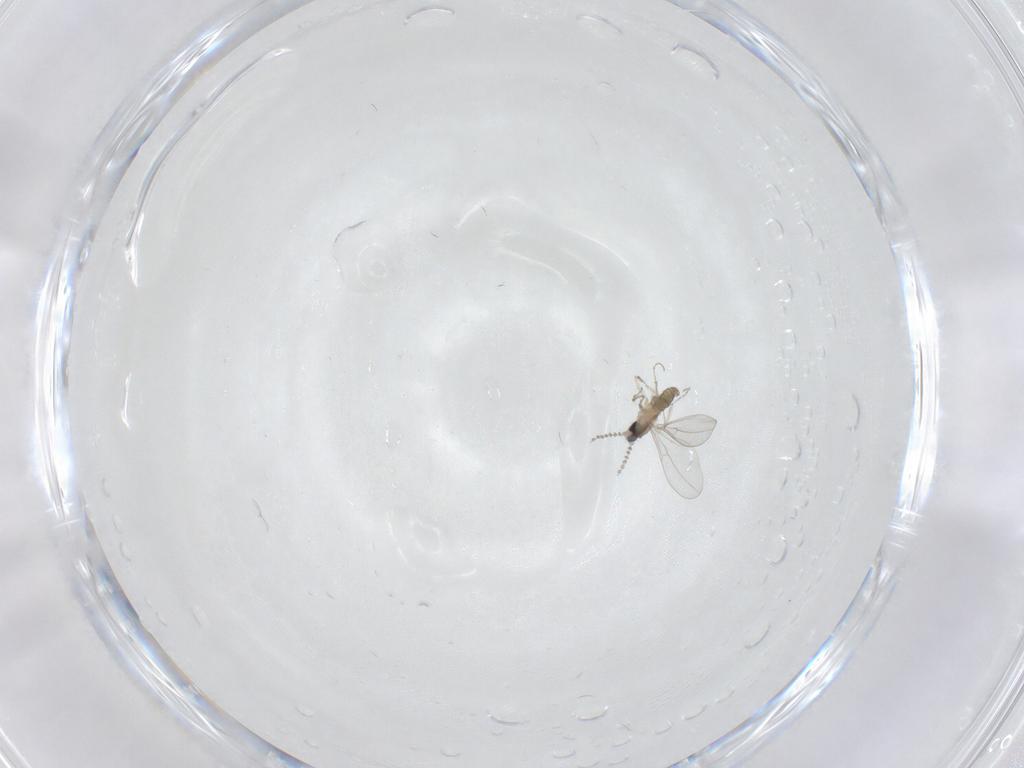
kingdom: Animalia
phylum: Arthropoda
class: Insecta
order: Diptera
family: Cecidomyiidae
